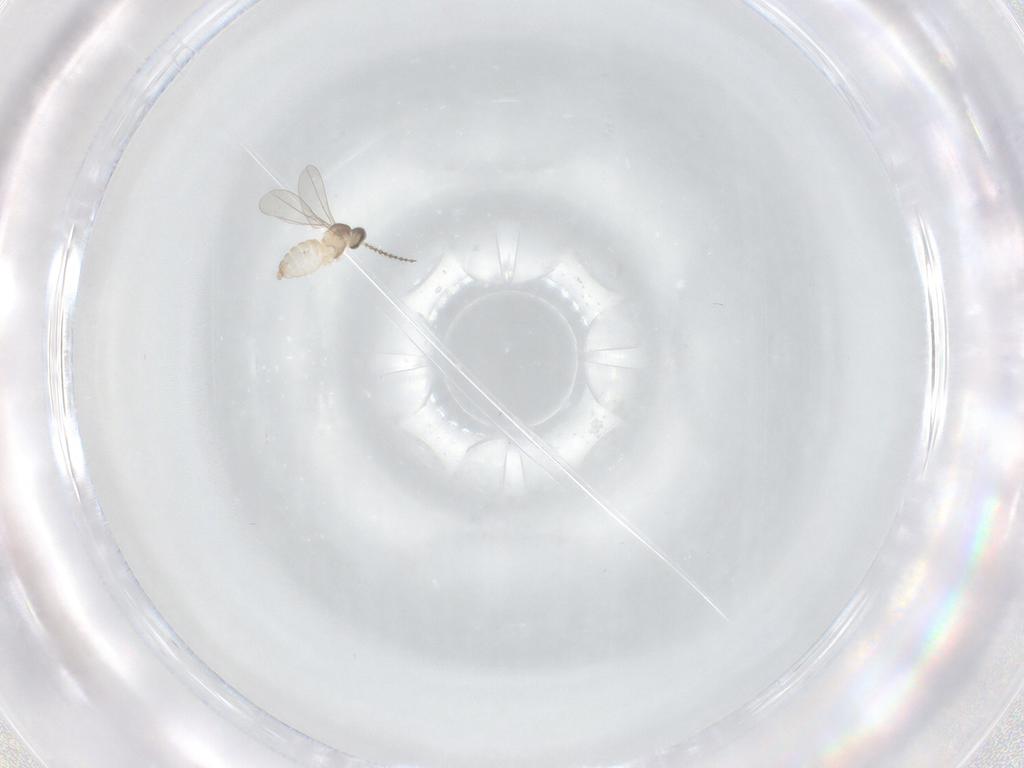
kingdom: Animalia
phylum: Arthropoda
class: Insecta
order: Diptera
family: Cecidomyiidae
